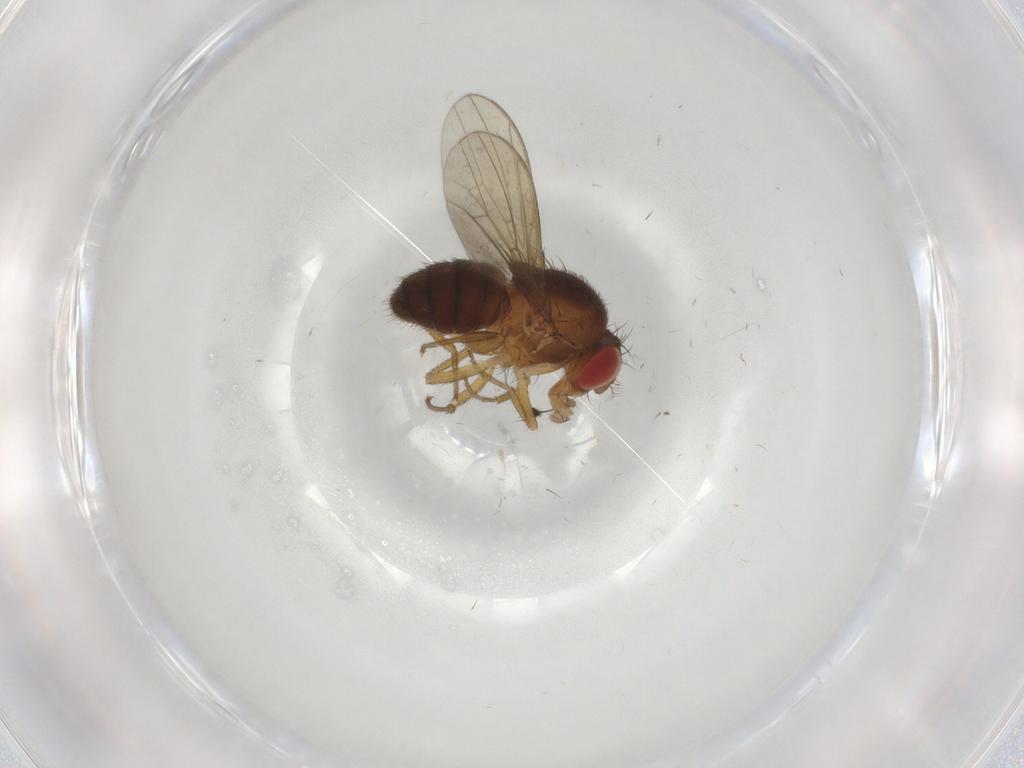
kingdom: Animalia
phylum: Arthropoda
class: Insecta
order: Diptera
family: Drosophilidae
